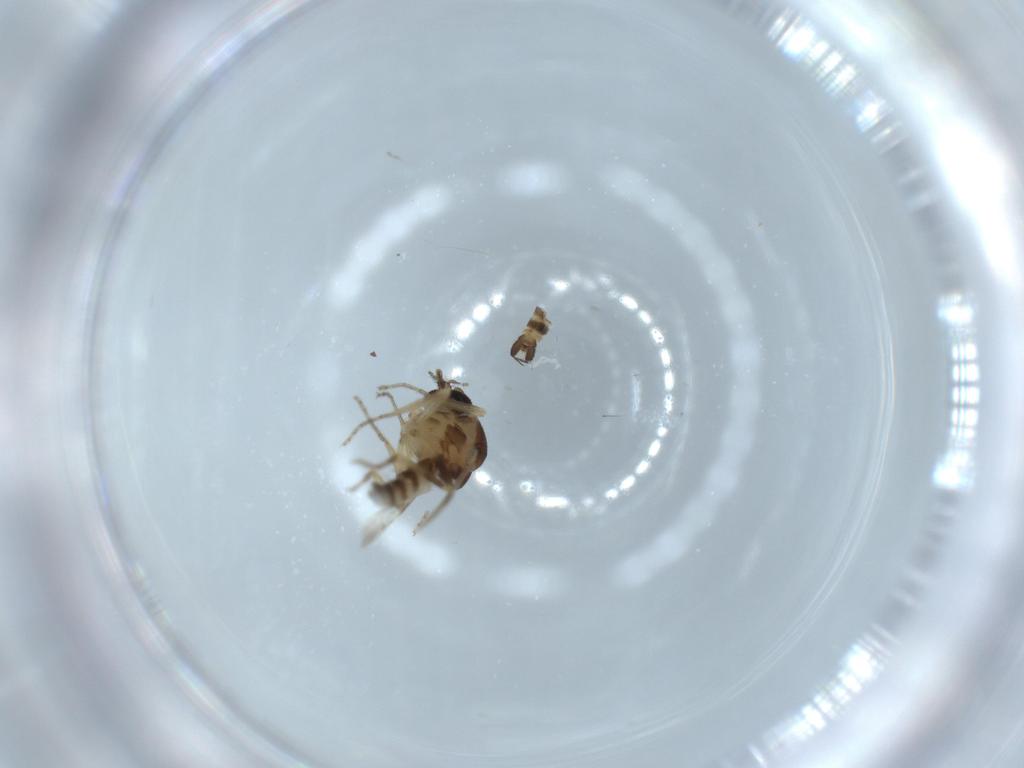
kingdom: Animalia
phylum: Arthropoda
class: Insecta
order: Diptera
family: Ceratopogonidae
